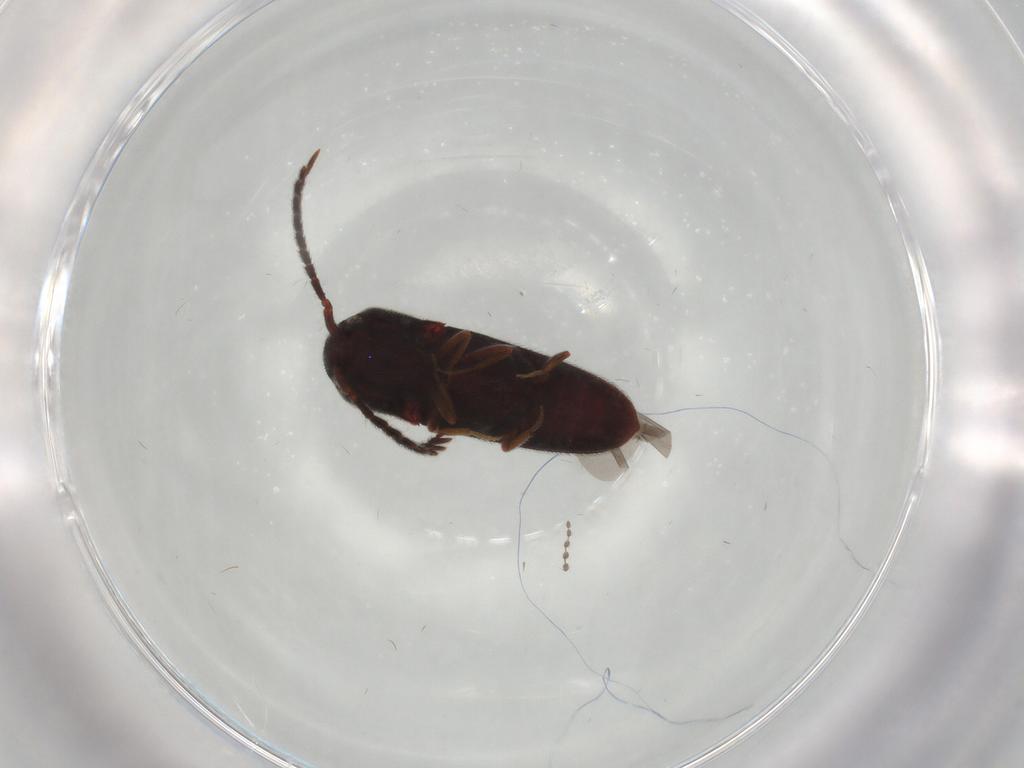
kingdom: Animalia
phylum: Arthropoda
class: Insecta
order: Coleoptera
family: Eucnemidae
